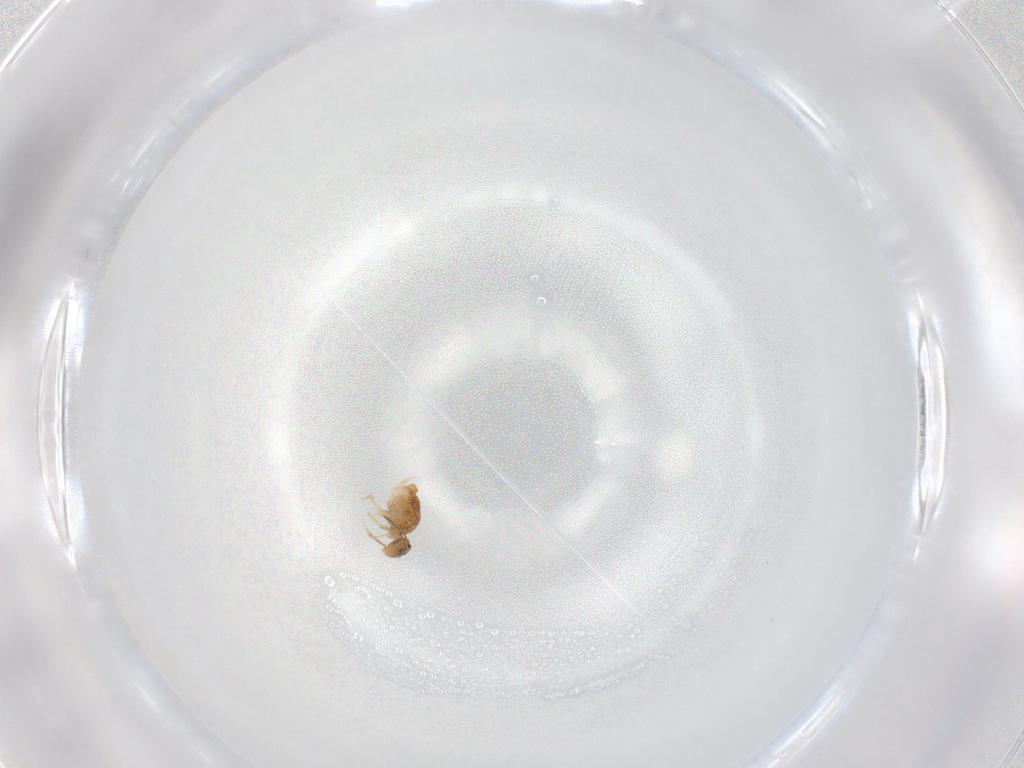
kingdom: Animalia
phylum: Arthropoda
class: Collembola
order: Symphypleona
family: Katiannidae
